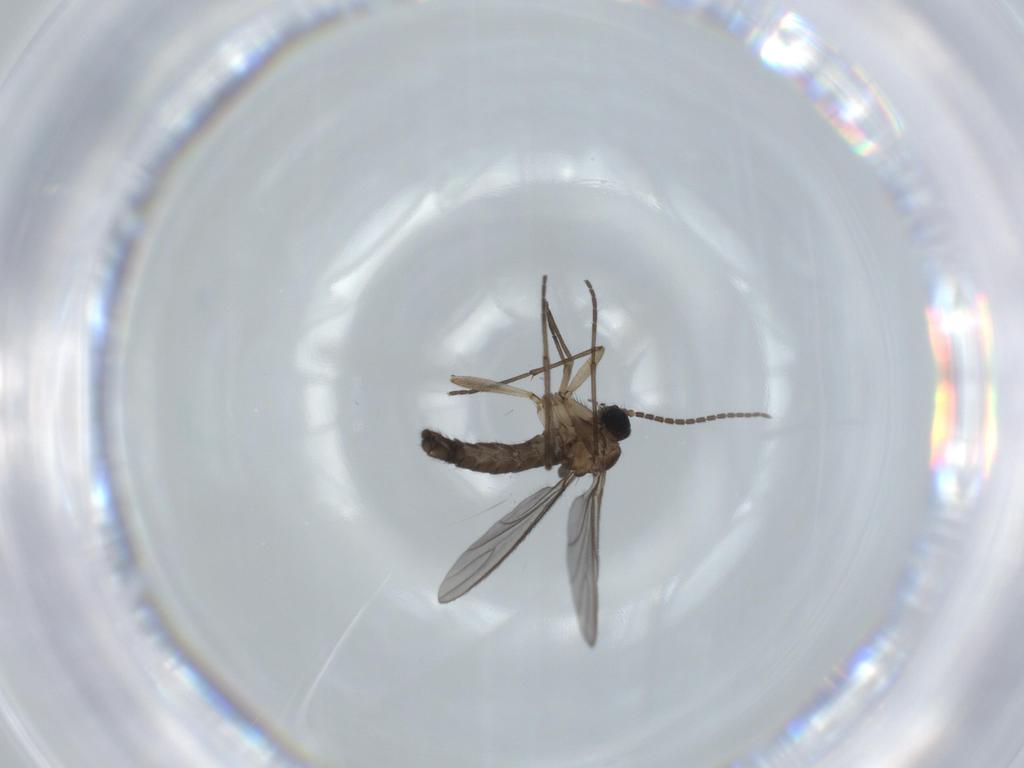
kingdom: Animalia
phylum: Arthropoda
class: Insecta
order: Diptera
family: Sciaridae
